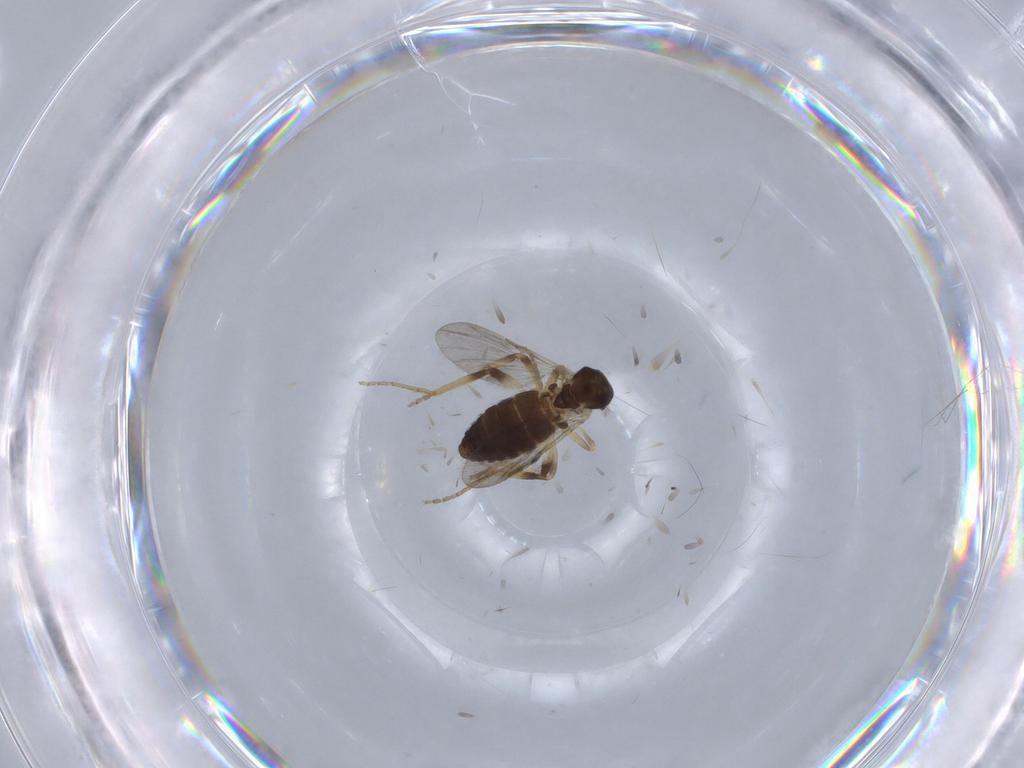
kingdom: Animalia
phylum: Arthropoda
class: Insecta
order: Diptera
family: Ceratopogonidae
